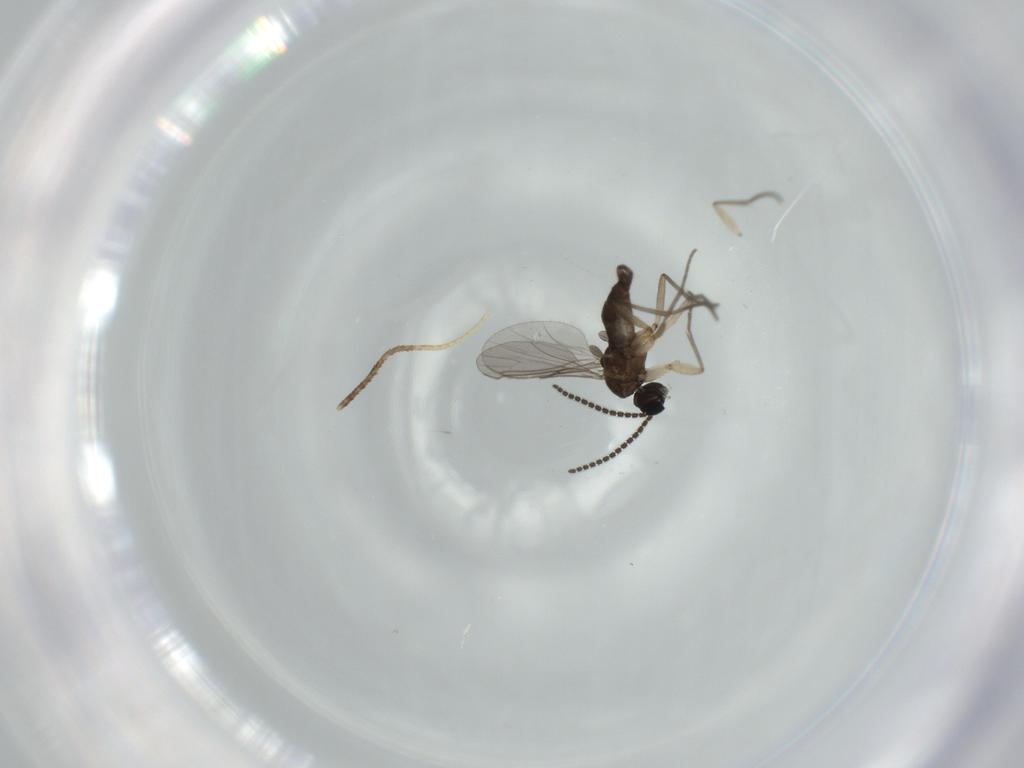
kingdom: Animalia
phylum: Arthropoda
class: Insecta
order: Diptera
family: Sciaridae
